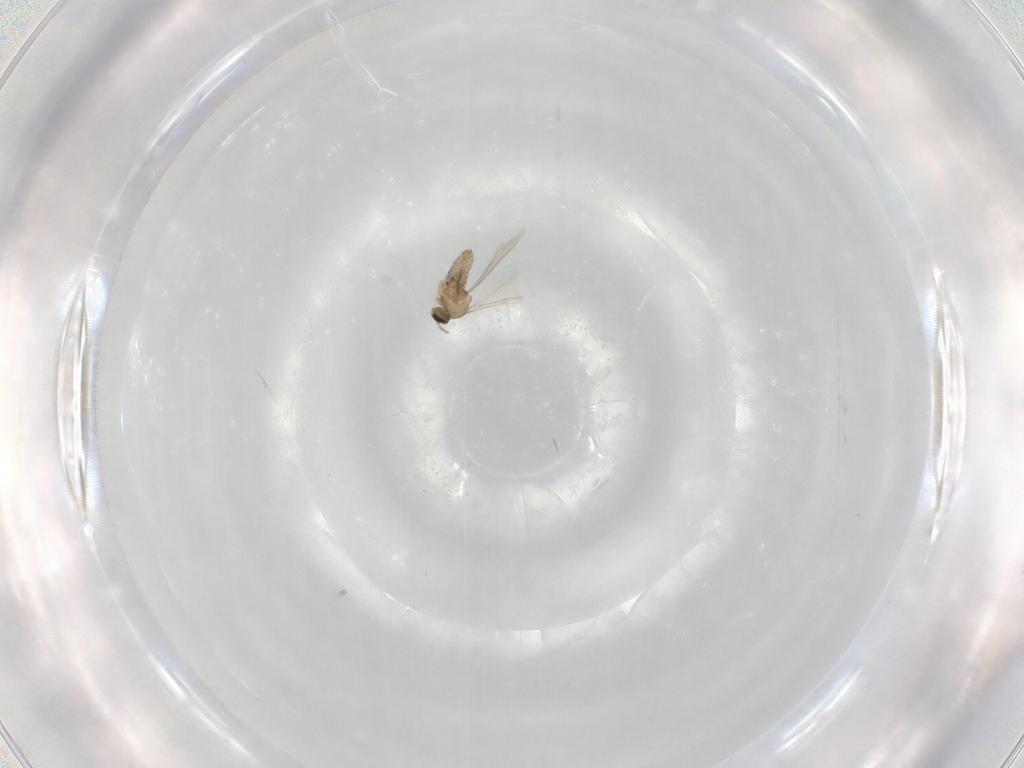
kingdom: Animalia
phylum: Arthropoda
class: Insecta
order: Diptera
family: Cecidomyiidae
